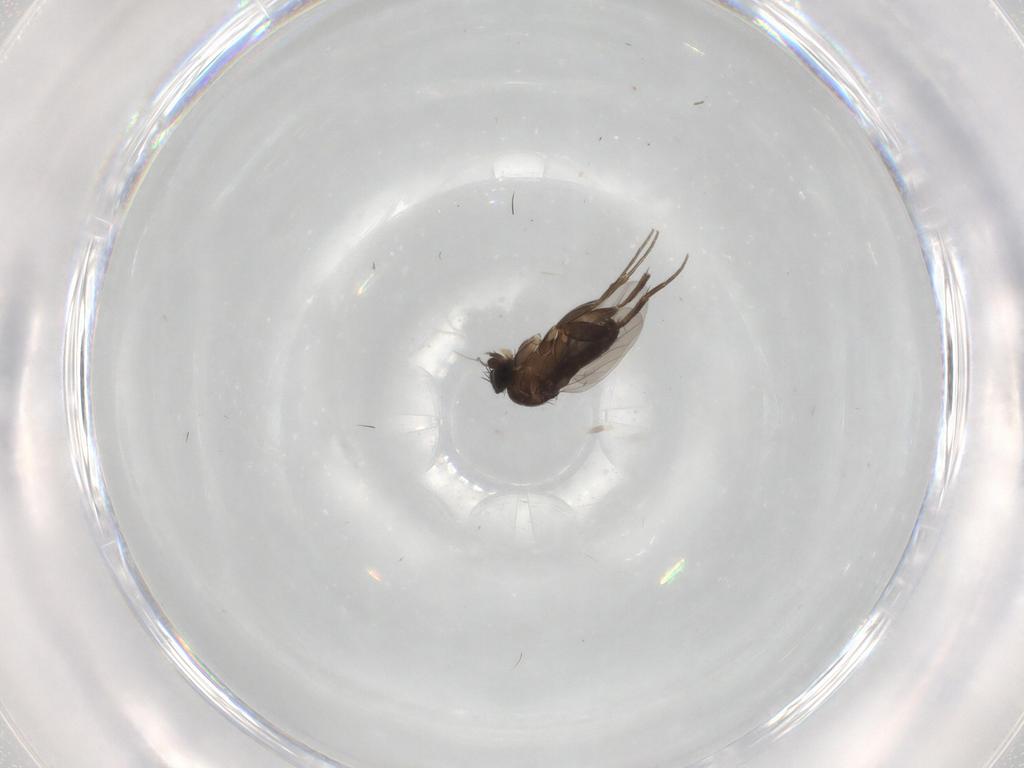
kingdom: Animalia
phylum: Arthropoda
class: Insecta
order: Diptera
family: Phoridae
